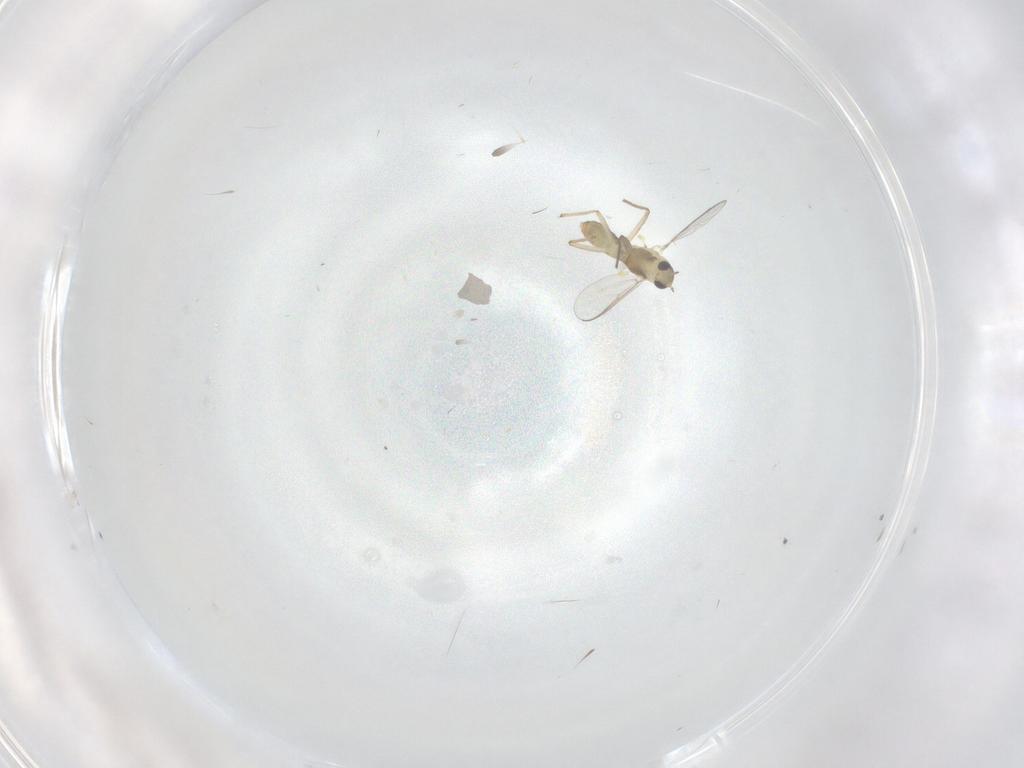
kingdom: Animalia
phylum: Arthropoda
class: Insecta
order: Diptera
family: Chironomidae
